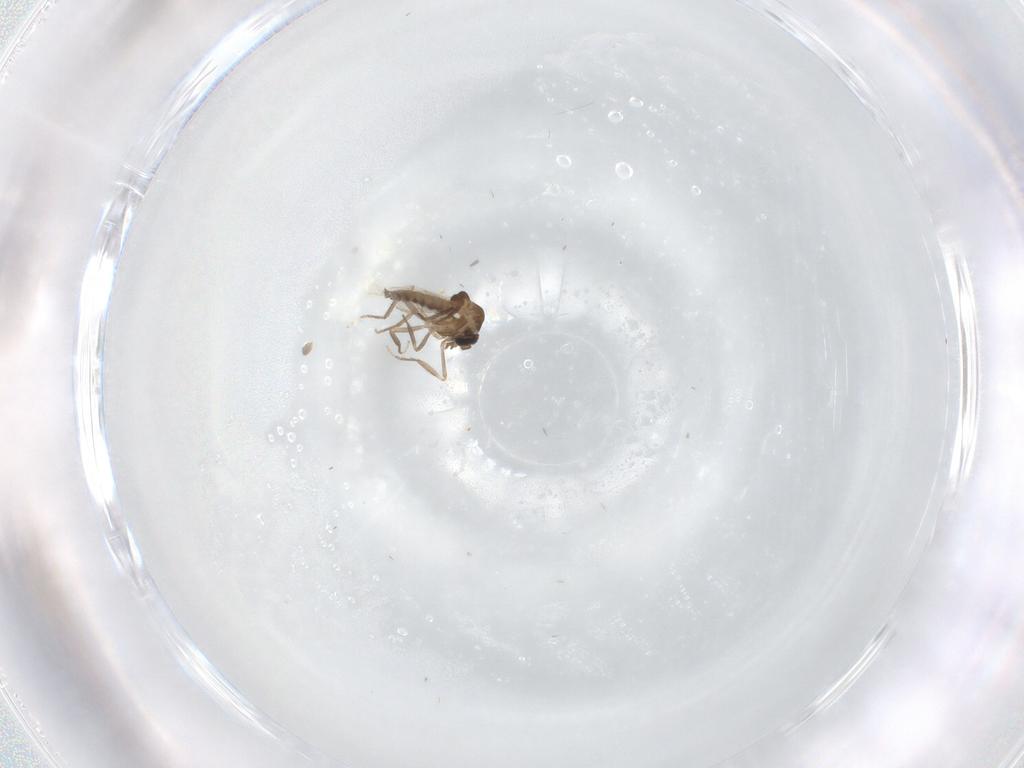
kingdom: Animalia
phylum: Arthropoda
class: Insecta
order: Diptera
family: Ceratopogonidae
